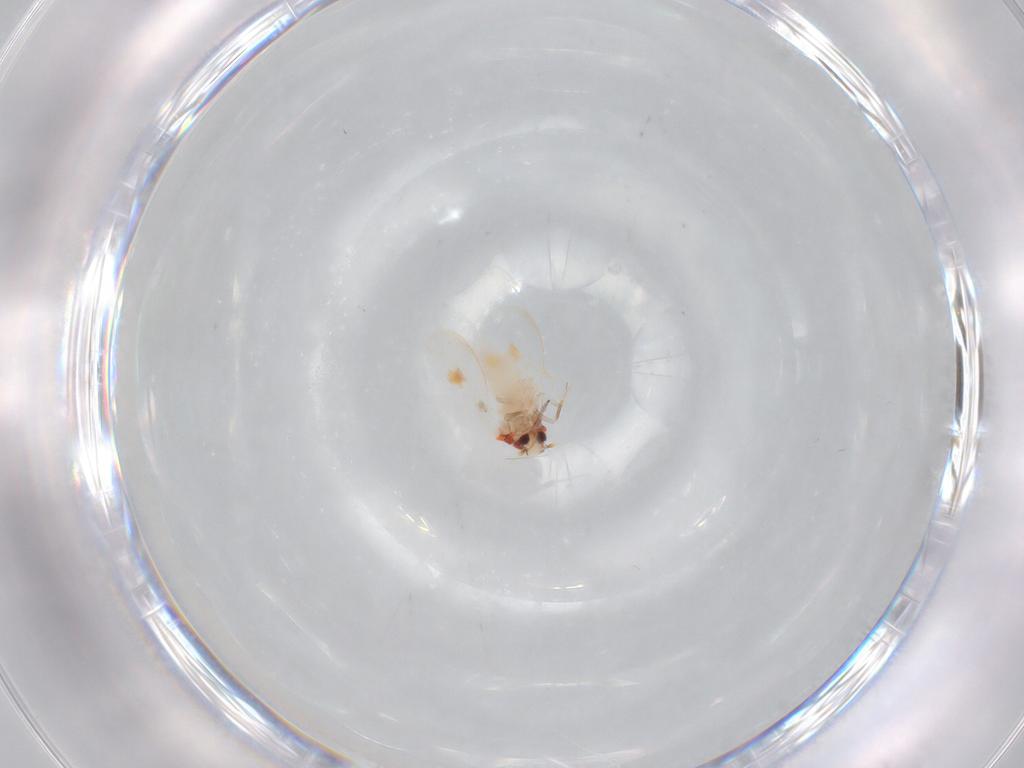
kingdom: Animalia
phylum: Arthropoda
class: Insecta
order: Hemiptera
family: Aleyrodidae
